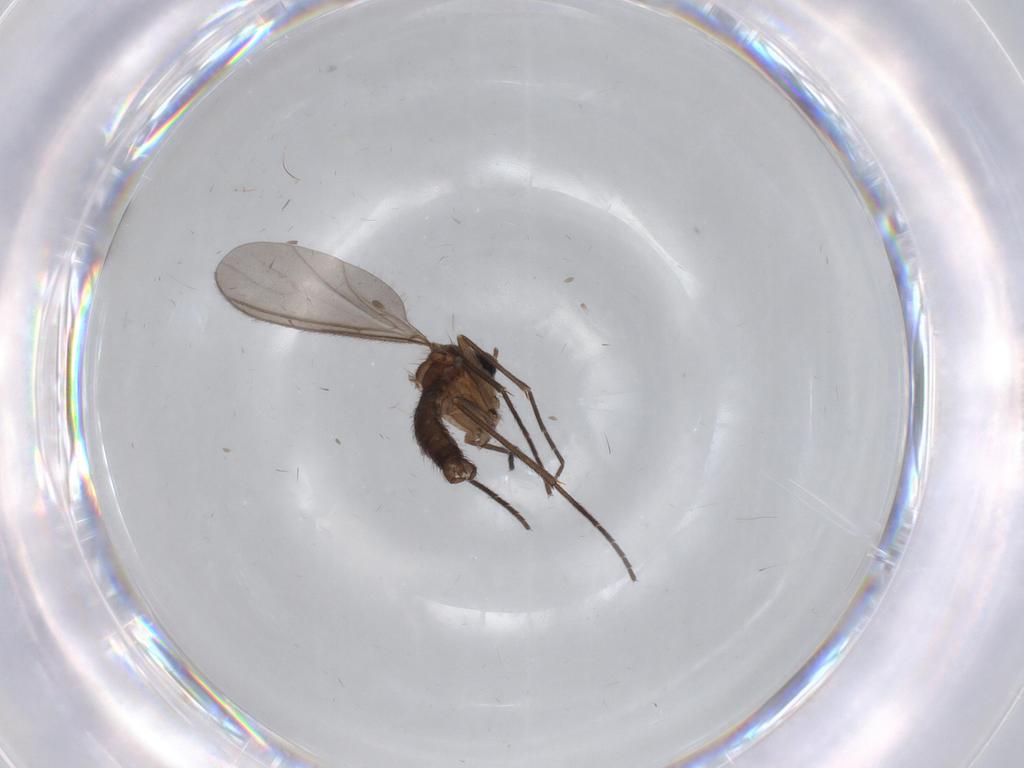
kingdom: Animalia
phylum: Arthropoda
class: Insecta
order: Diptera
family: Sciaridae
